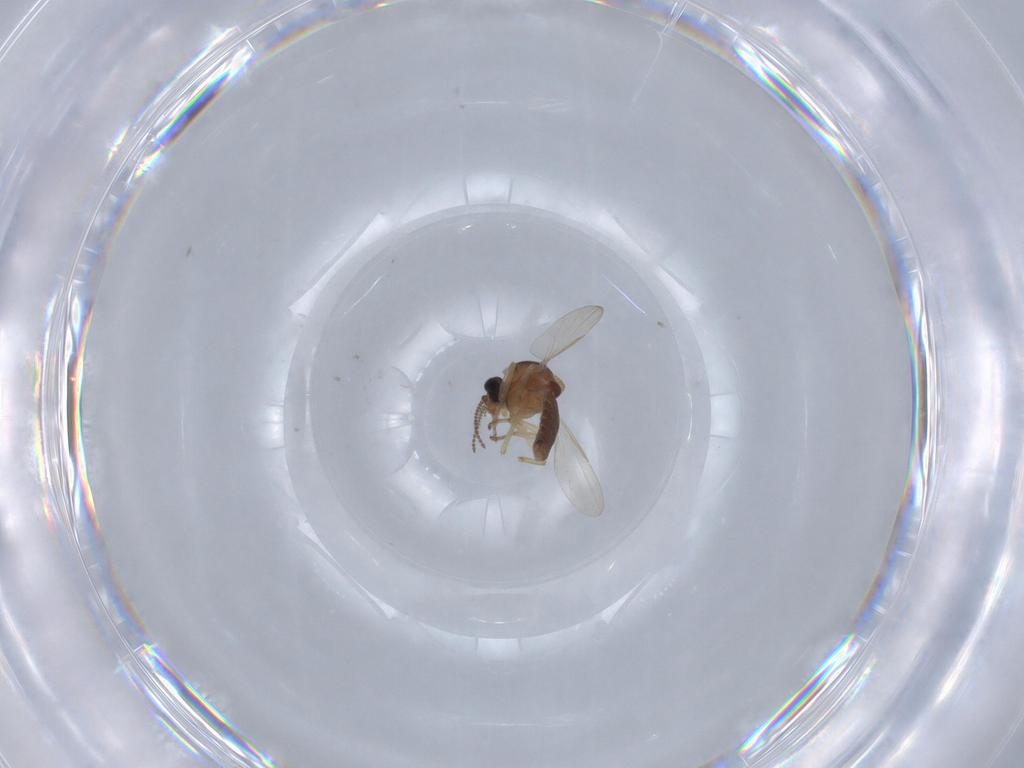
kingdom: Animalia
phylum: Arthropoda
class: Insecta
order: Diptera
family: Ceratopogonidae
